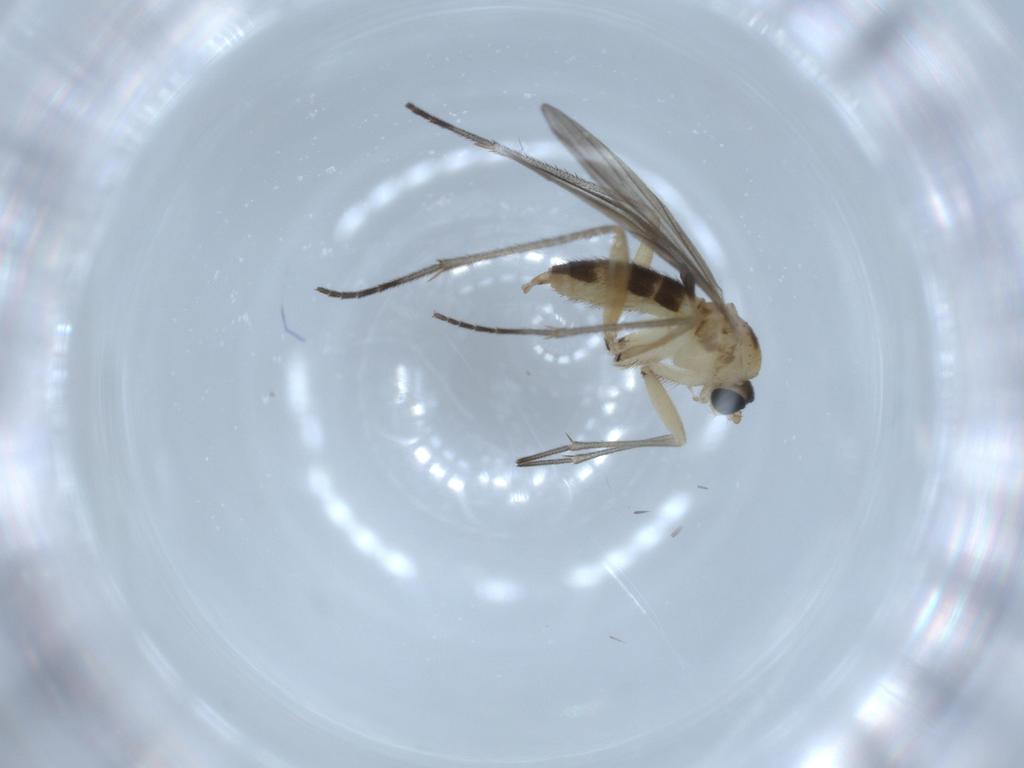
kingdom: Animalia
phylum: Arthropoda
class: Insecta
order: Diptera
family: Sciaridae
